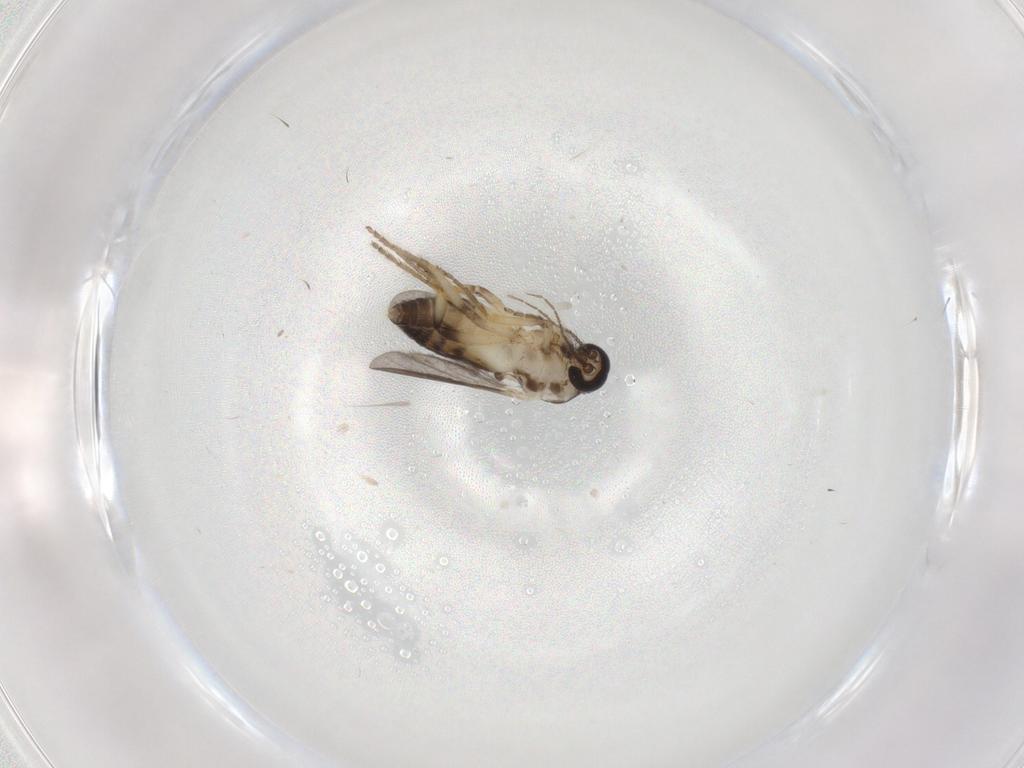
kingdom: Animalia
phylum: Arthropoda
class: Insecta
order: Diptera
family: Ceratopogonidae
